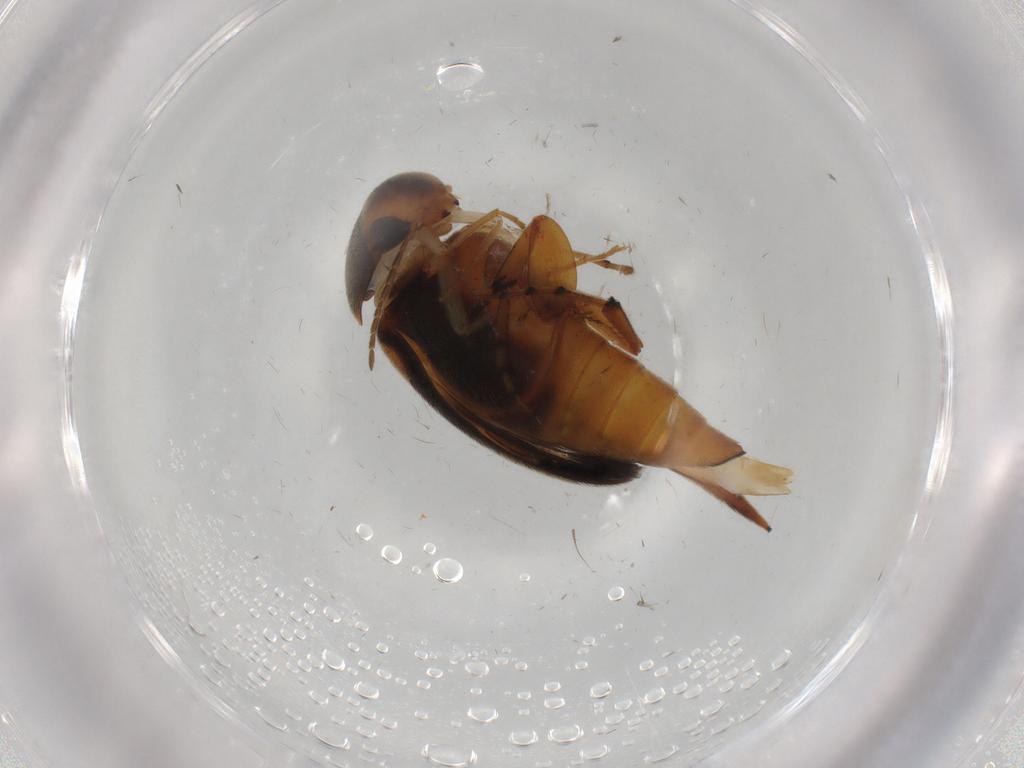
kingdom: Animalia
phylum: Arthropoda
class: Insecta
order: Coleoptera
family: Mordellidae
